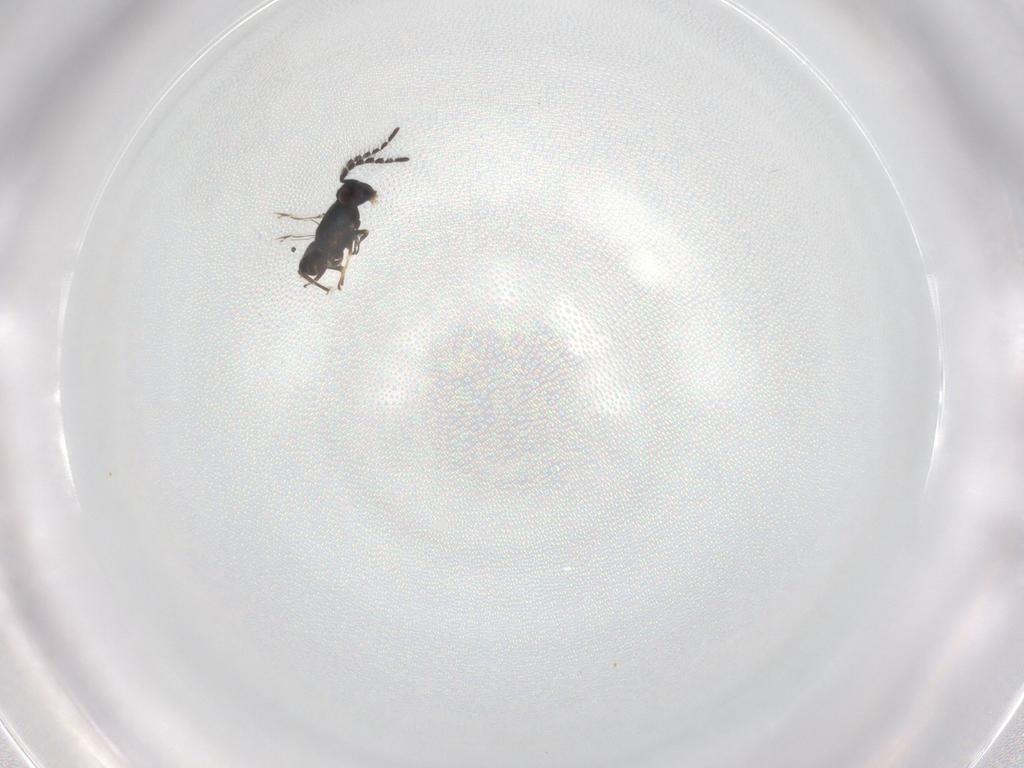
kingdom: Animalia
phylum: Arthropoda
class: Insecta
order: Hymenoptera
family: Encyrtidae
